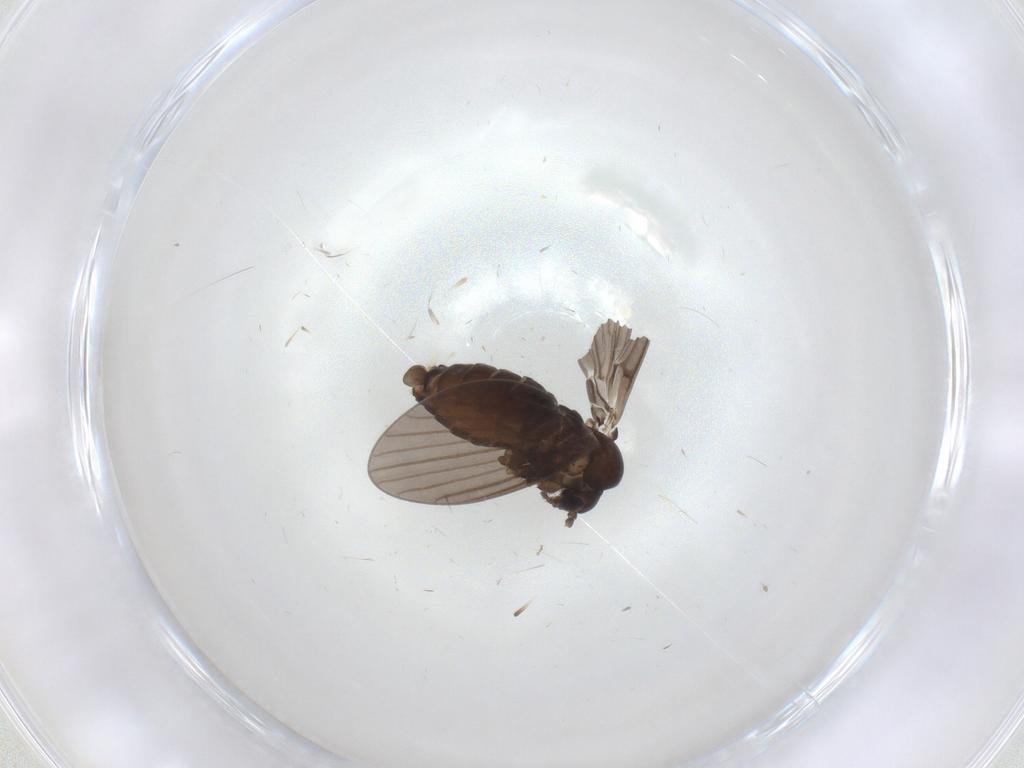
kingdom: Animalia
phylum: Arthropoda
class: Insecta
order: Diptera
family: Psychodidae
